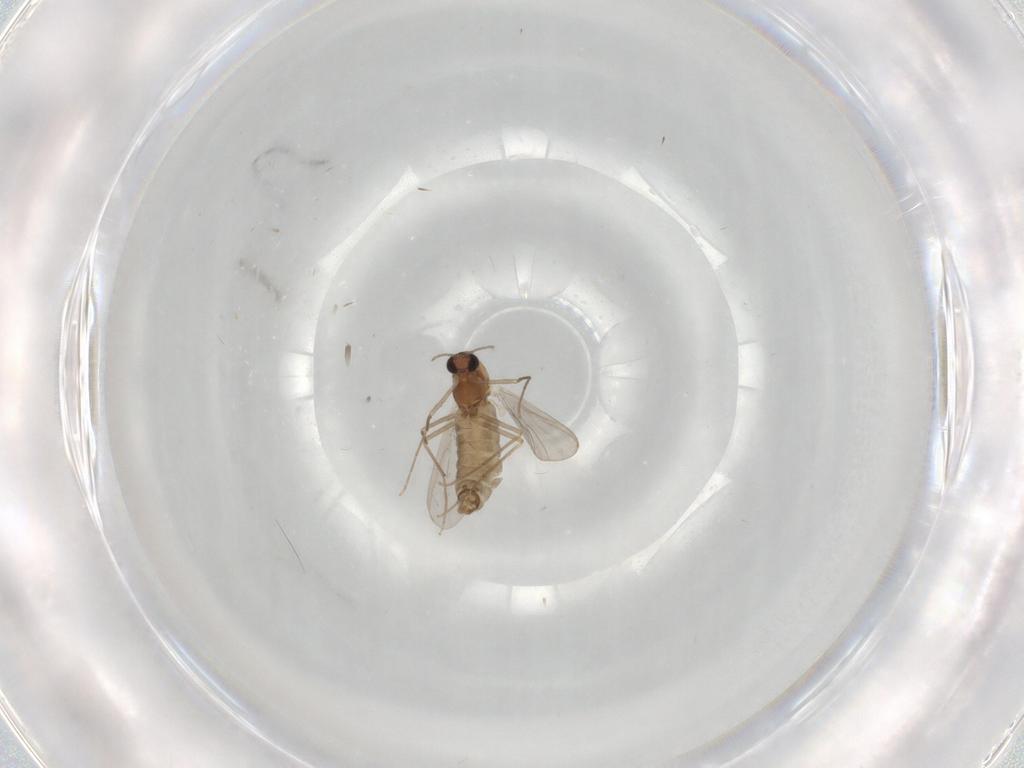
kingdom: Animalia
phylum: Arthropoda
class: Insecta
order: Diptera
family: Chironomidae
